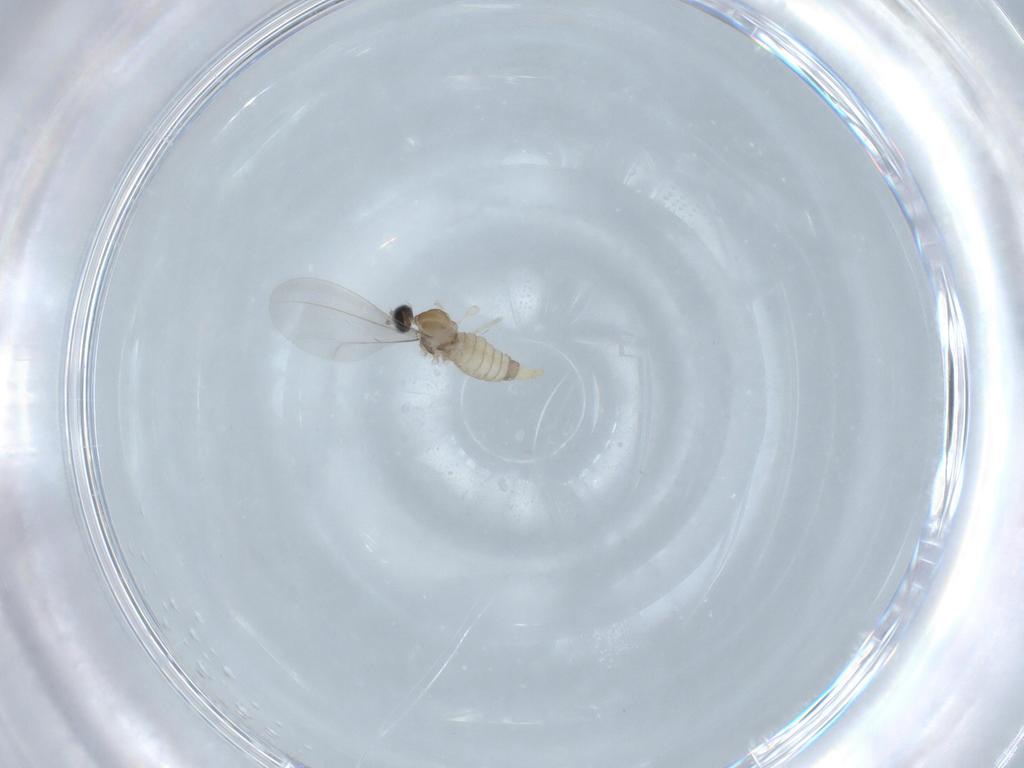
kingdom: Animalia
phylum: Arthropoda
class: Insecta
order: Diptera
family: Cecidomyiidae
